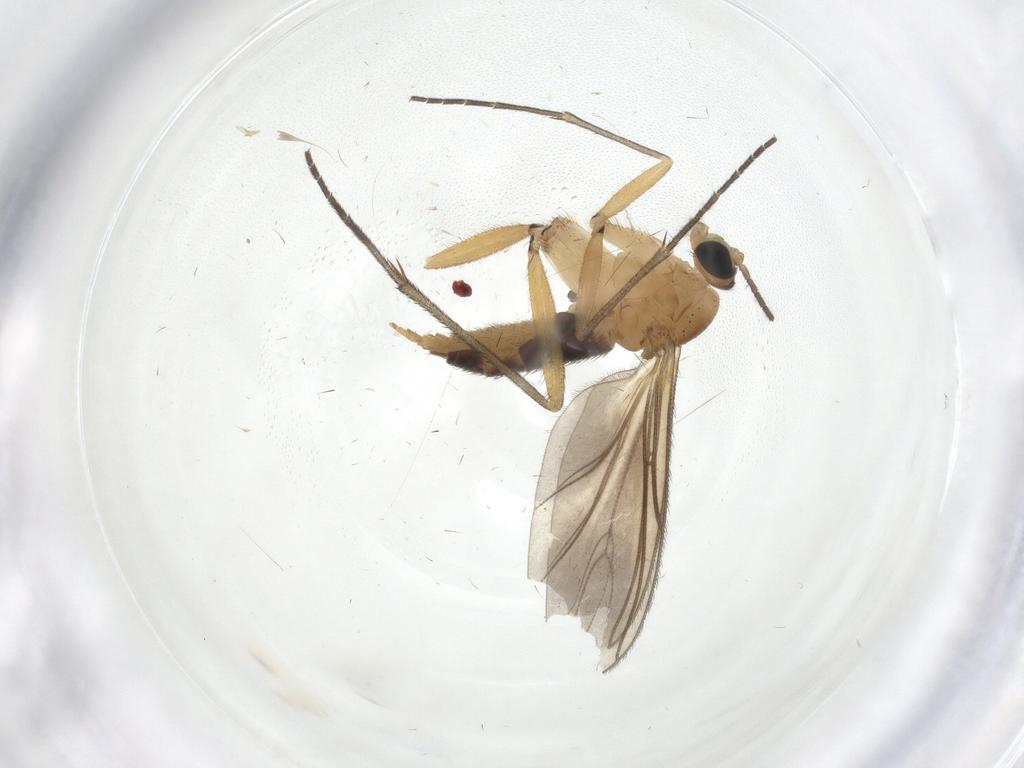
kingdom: Animalia
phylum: Arthropoda
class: Insecta
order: Diptera
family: Sciaridae
